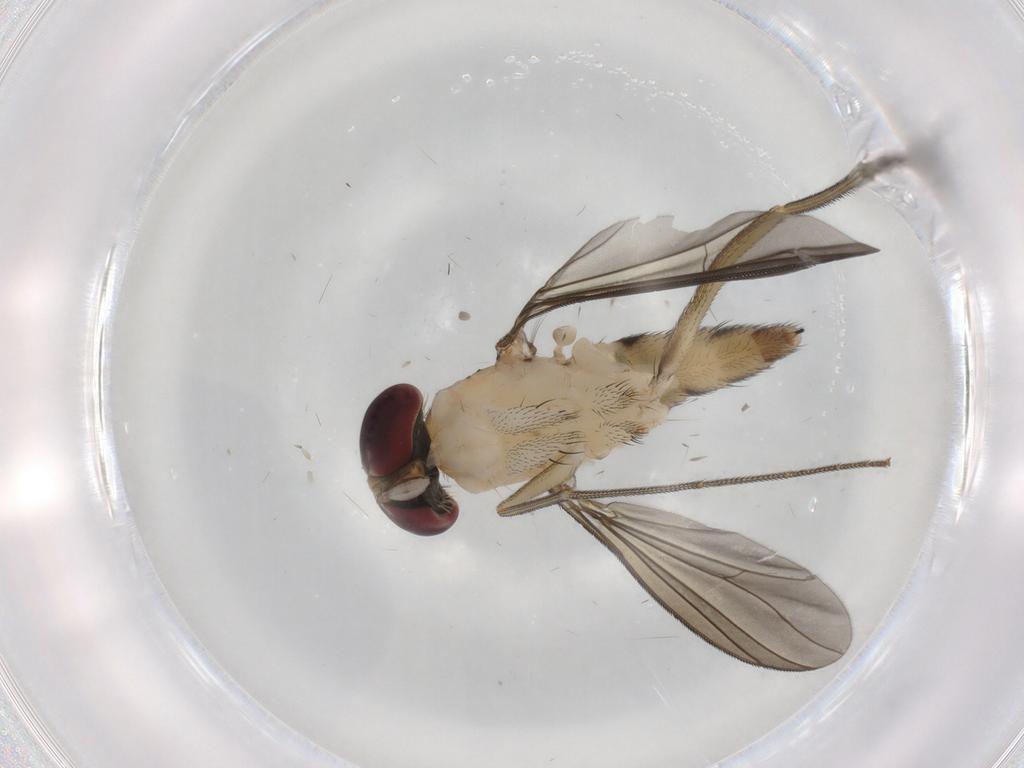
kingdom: Animalia
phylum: Arthropoda
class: Insecta
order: Diptera
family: Dolichopodidae
